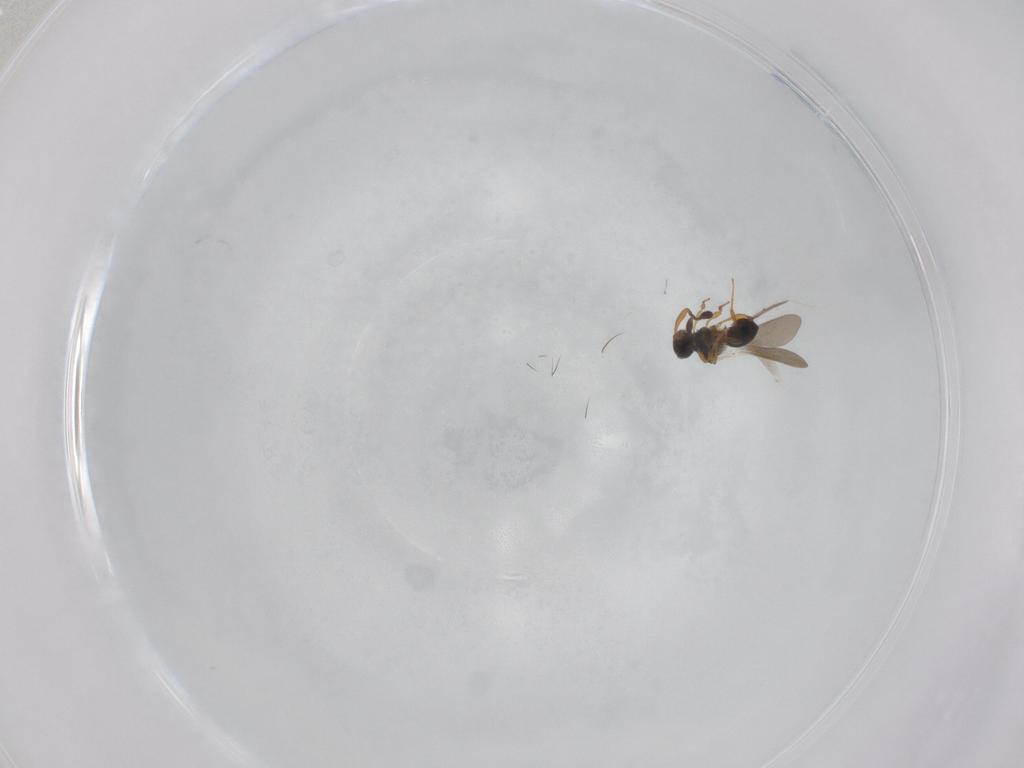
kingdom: Animalia
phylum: Arthropoda
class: Insecta
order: Hymenoptera
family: Platygastridae
